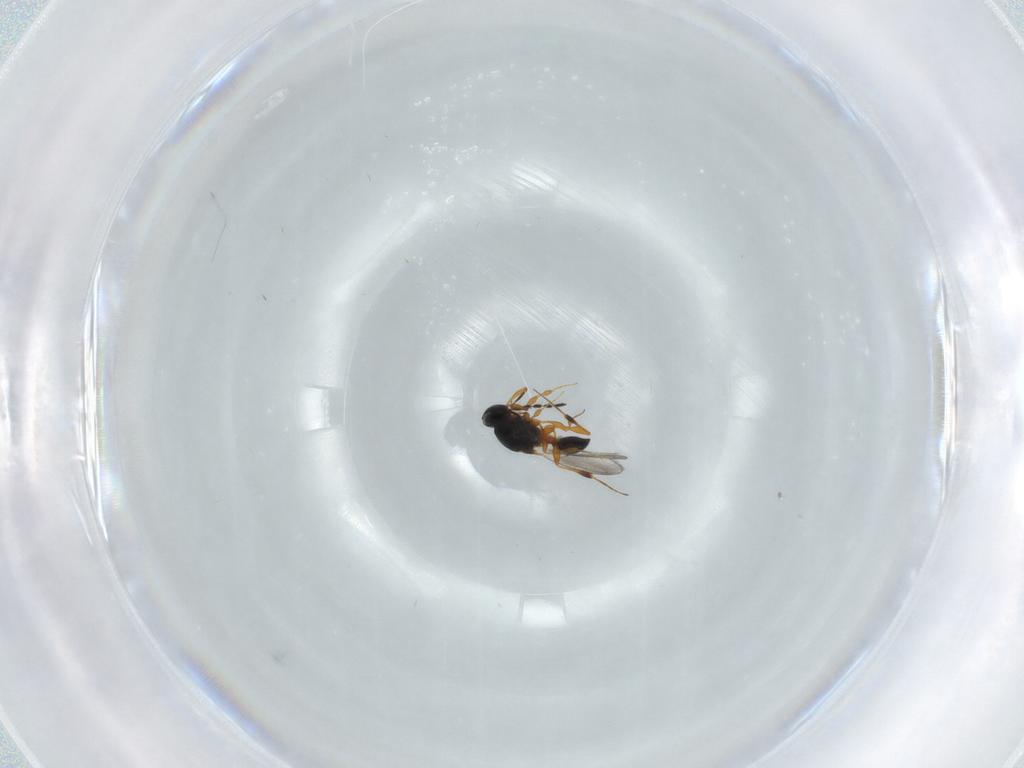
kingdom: Animalia
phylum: Arthropoda
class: Insecta
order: Hymenoptera
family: Platygastridae
